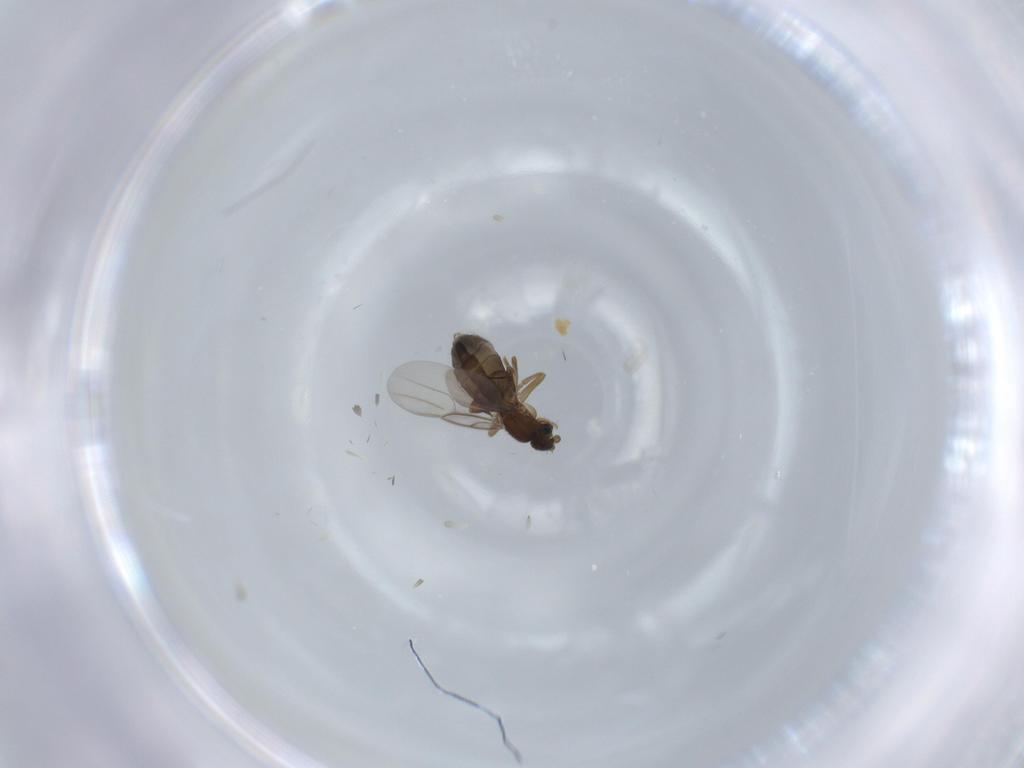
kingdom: Animalia
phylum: Arthropoda
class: Insecta
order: Diptera
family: Phoridae
